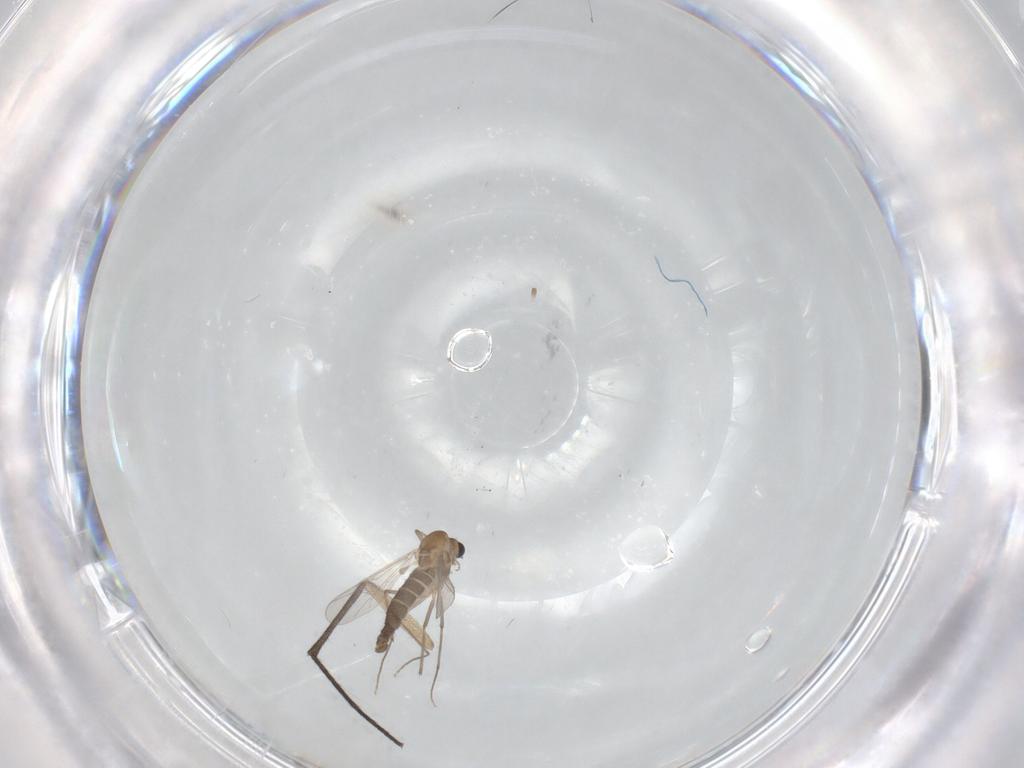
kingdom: Animalia
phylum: Arthropoda
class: Insecta
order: Diptera
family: Sciaridae
